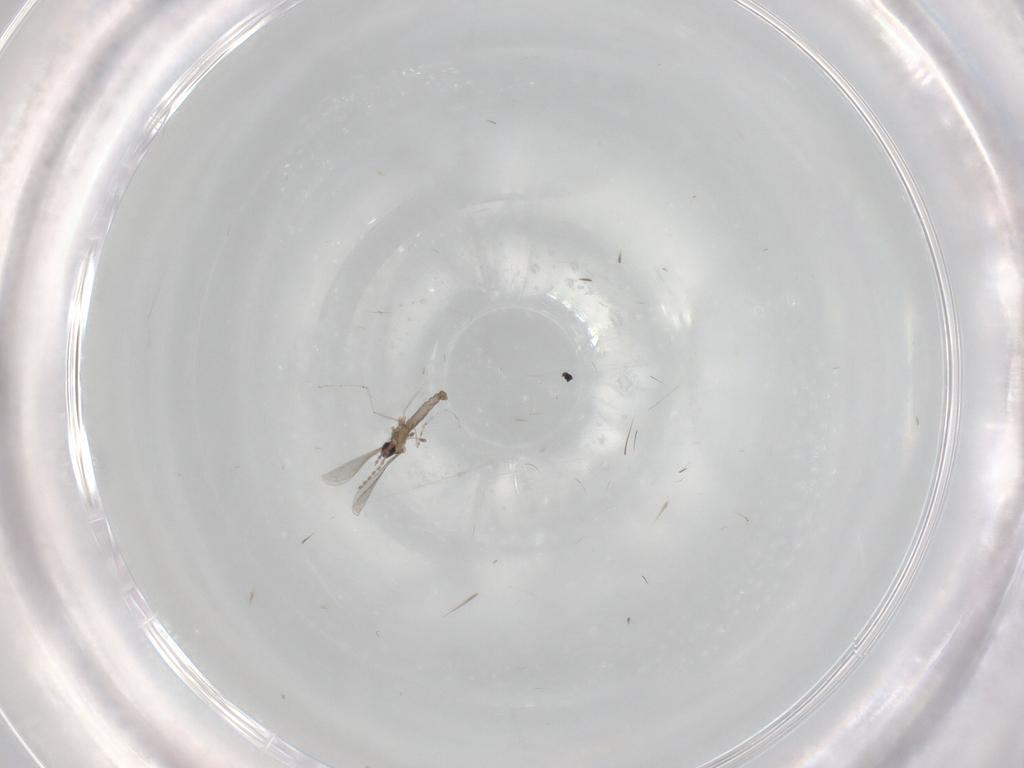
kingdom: Animalia
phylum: Arthropoda
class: Insecta
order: Diptera
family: Cecidomyiidae
